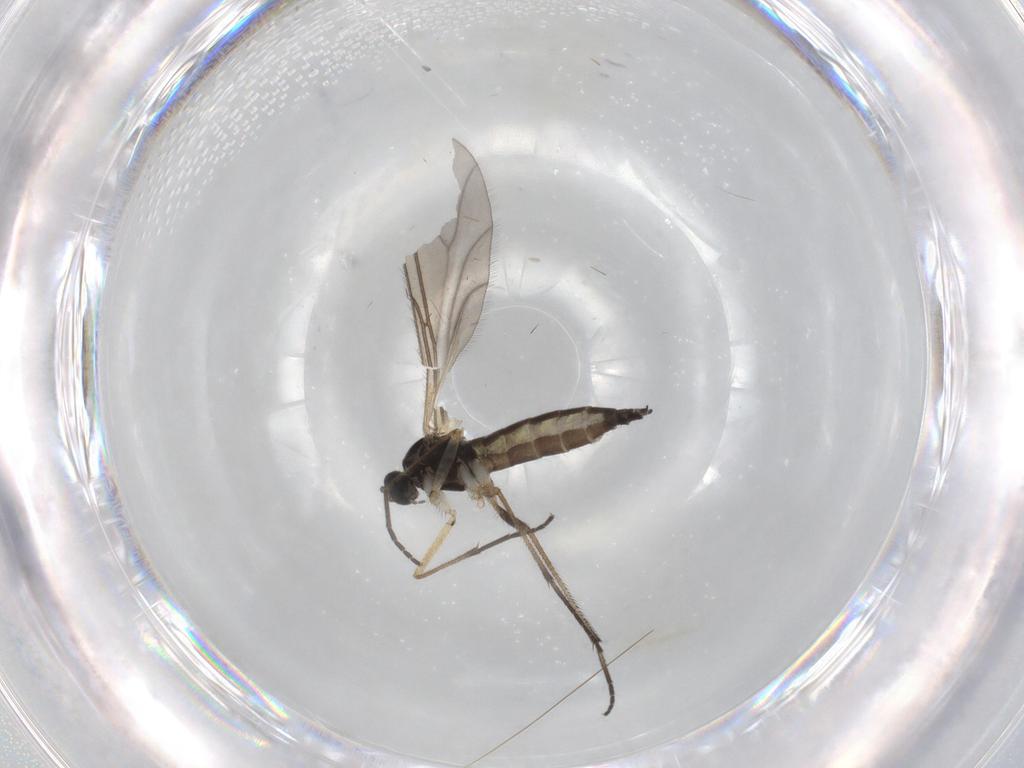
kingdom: Animalia
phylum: Arthropoda
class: Insecta
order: Diptera
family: Sciaridae
